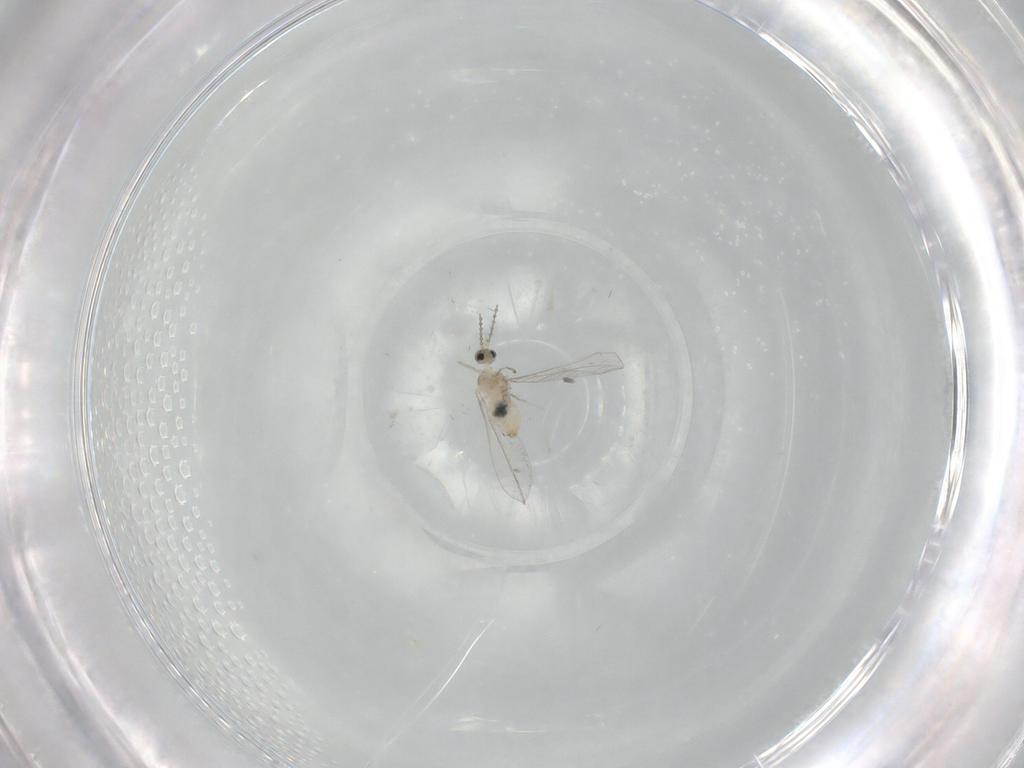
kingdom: Animalia
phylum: Arthropoda
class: Insecta
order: Diptera
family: Cecidomyiidae
